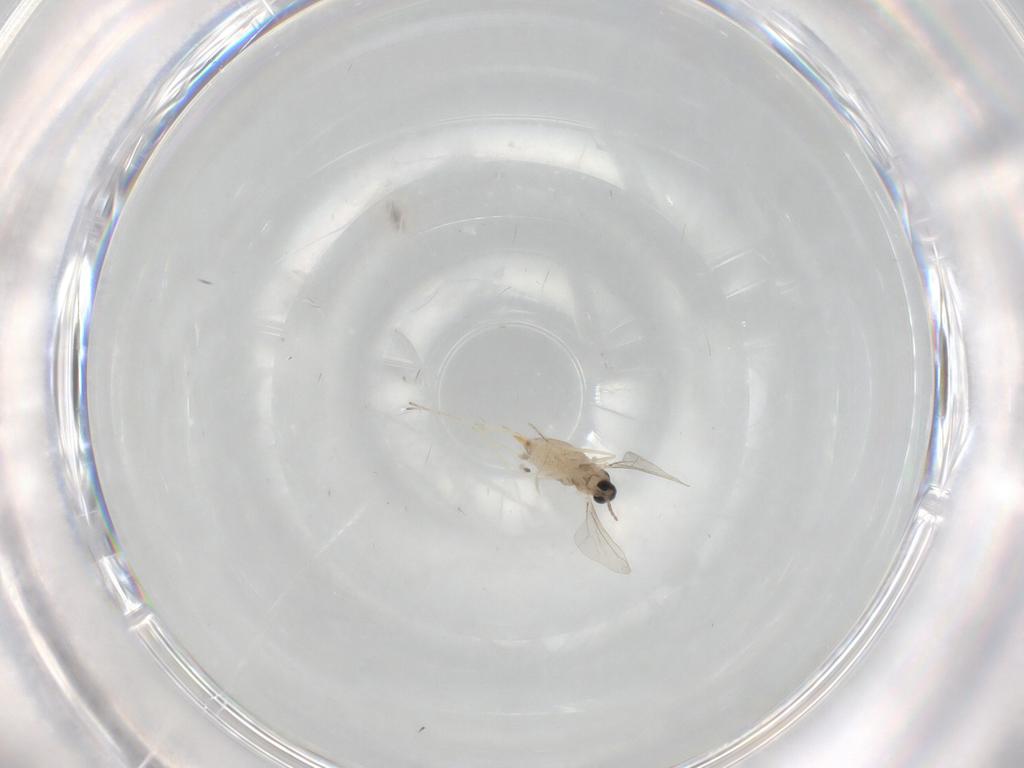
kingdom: Animalia
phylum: Arthropoda
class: Insecta
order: Diptera
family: Cecidomyiidae
